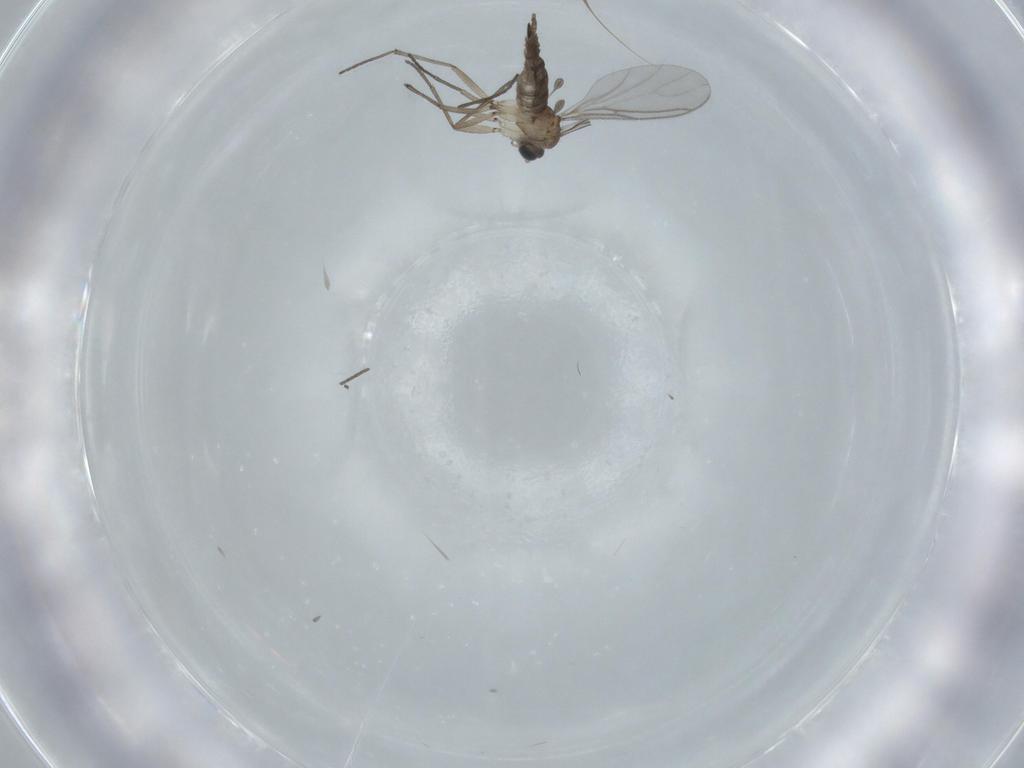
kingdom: Animalia
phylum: Arthropoda
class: Insecta
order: Diptera
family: Sciaridae
